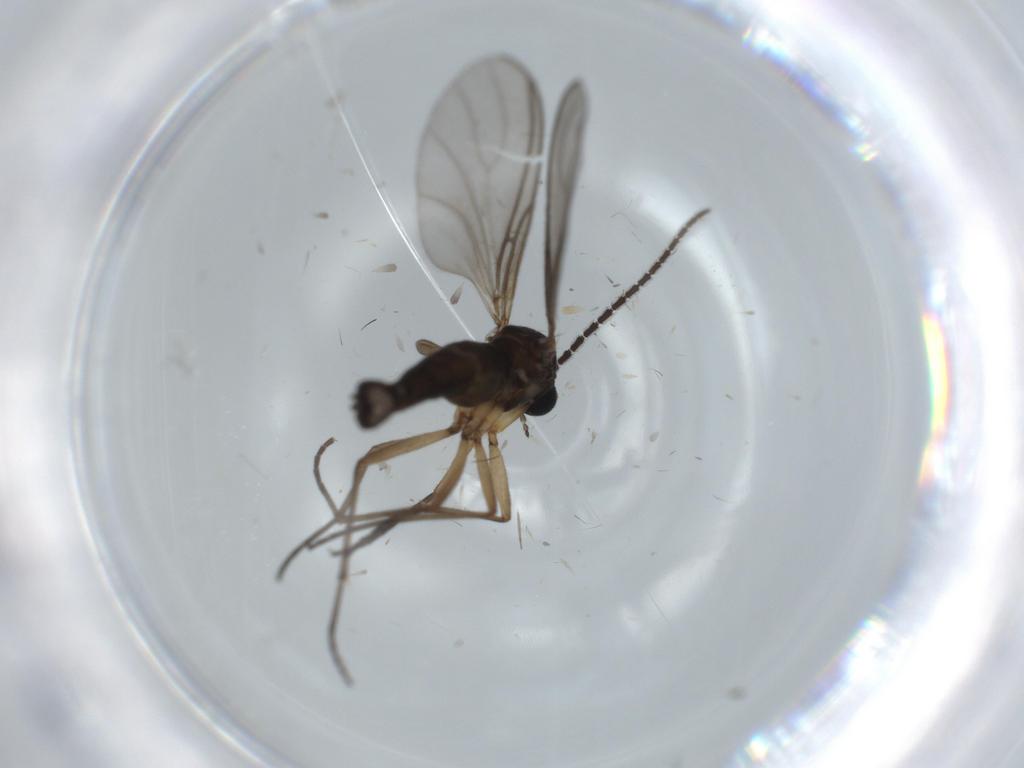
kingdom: Animalia
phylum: Arthropoda
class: Insecta
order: Diptera
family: Sciaridae
